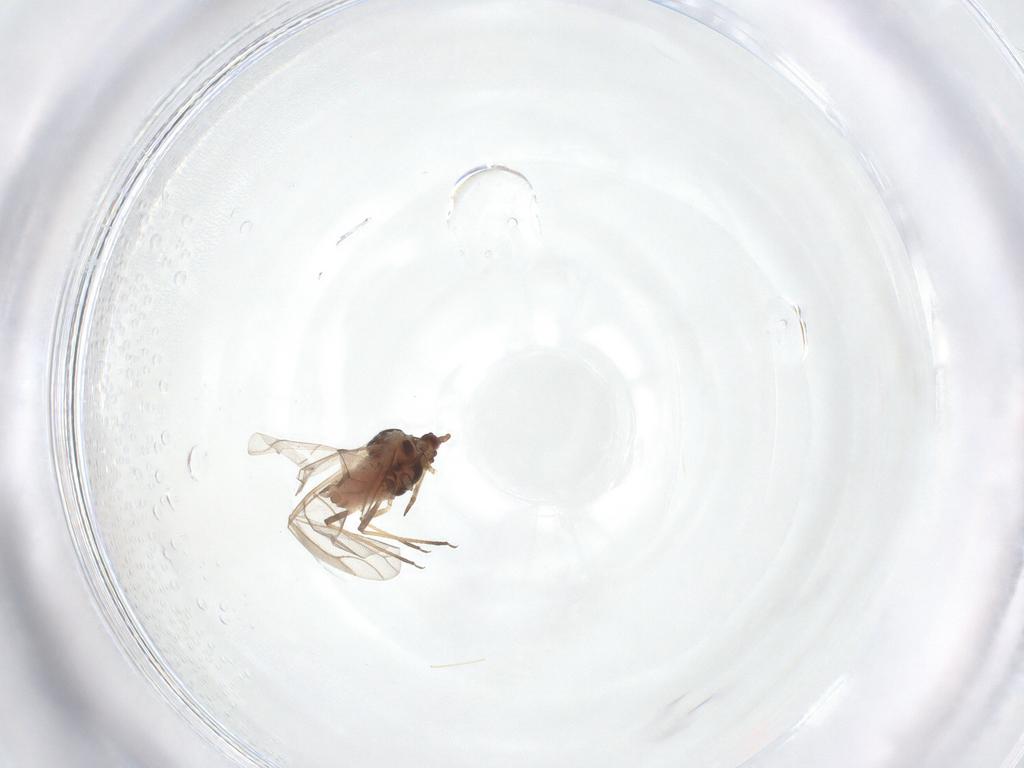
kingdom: Animalia
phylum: Arthropoda
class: Insecta
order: Hemiptera
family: Aphididae
